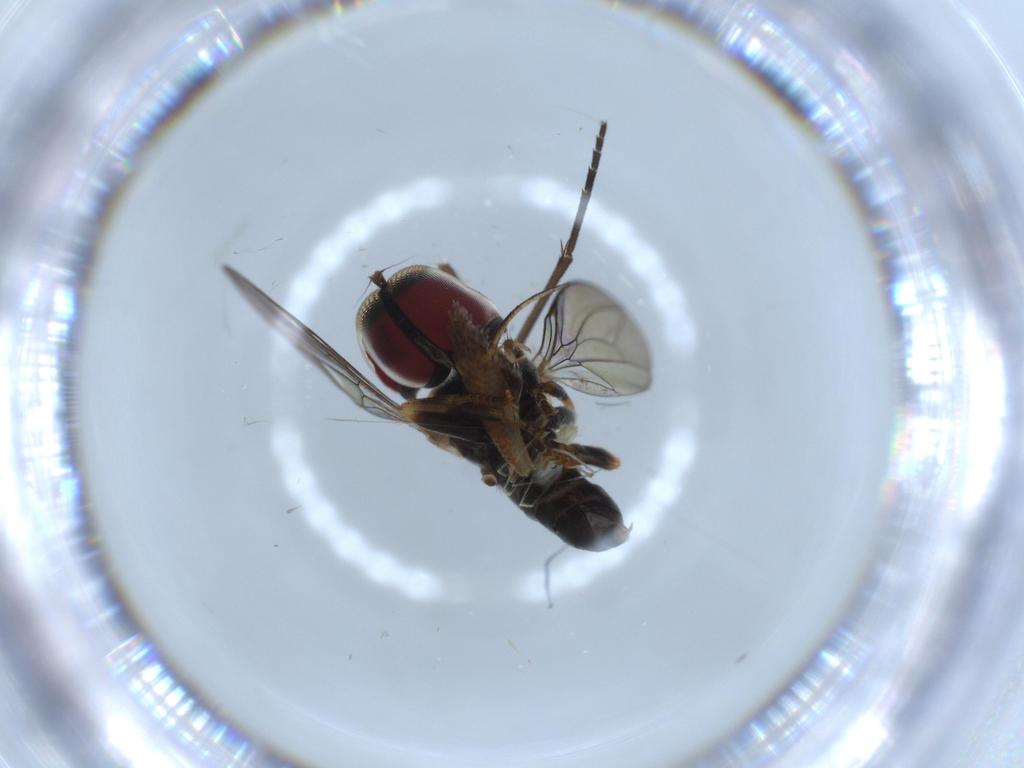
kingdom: Animalia
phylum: Arthropoda
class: Insecta
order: Diptera
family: Pipunculidae
